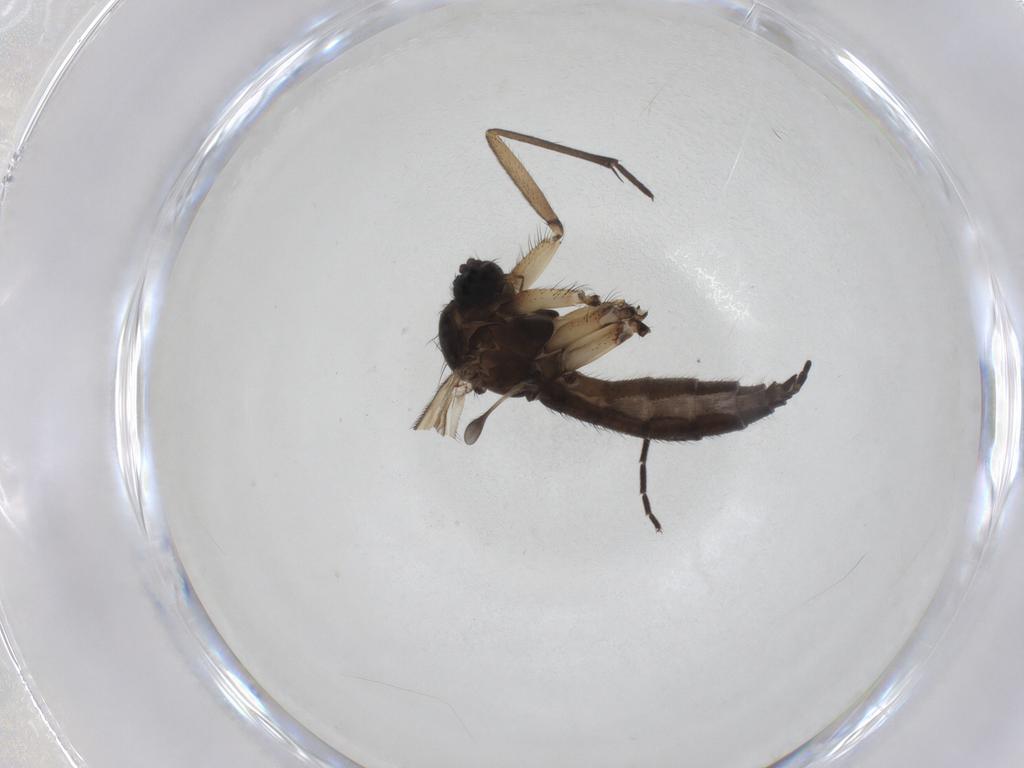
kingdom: Animalia
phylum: Arthropoda
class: Insecta
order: Diptera
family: Sciaridae
